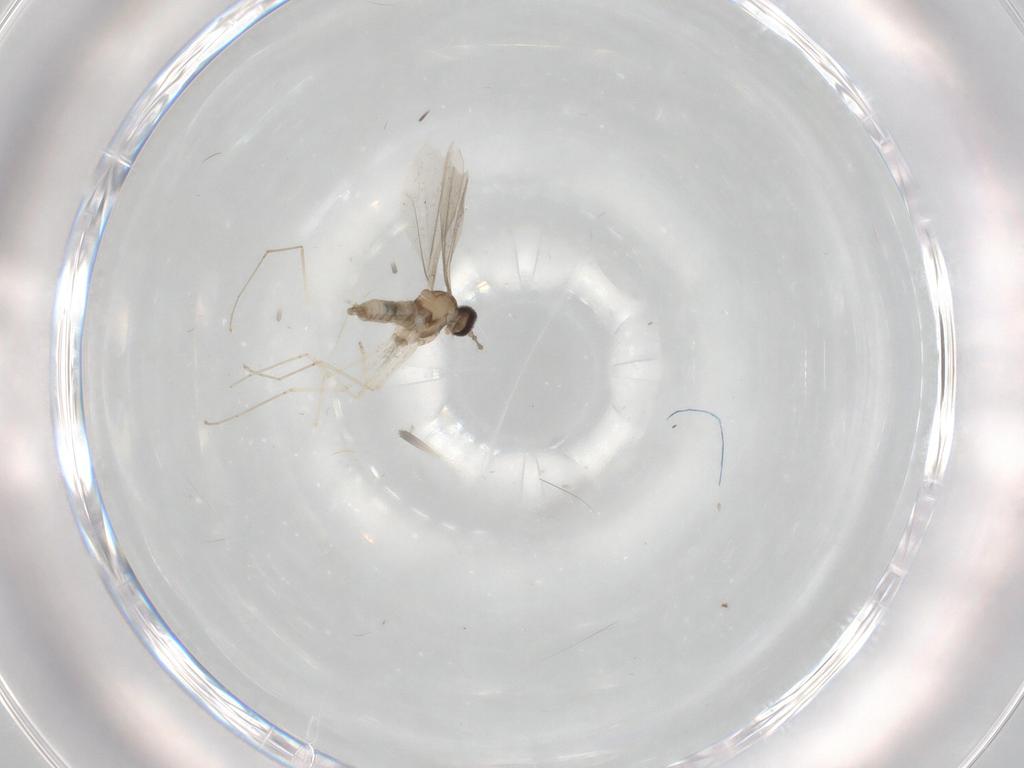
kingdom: Animalia
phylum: Arthropoda
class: Insecta
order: Diptera
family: Cecidomyiidae
